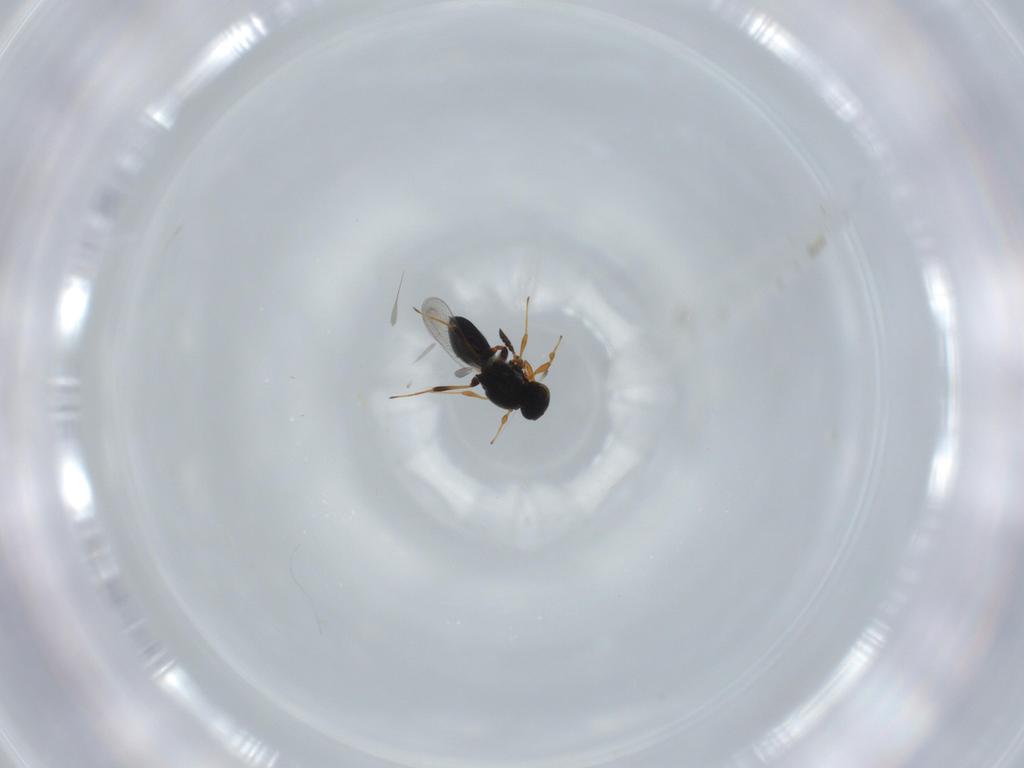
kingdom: Animalia
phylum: Arthropoda
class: Insecta
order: Hymenoptera
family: Platygastridae
